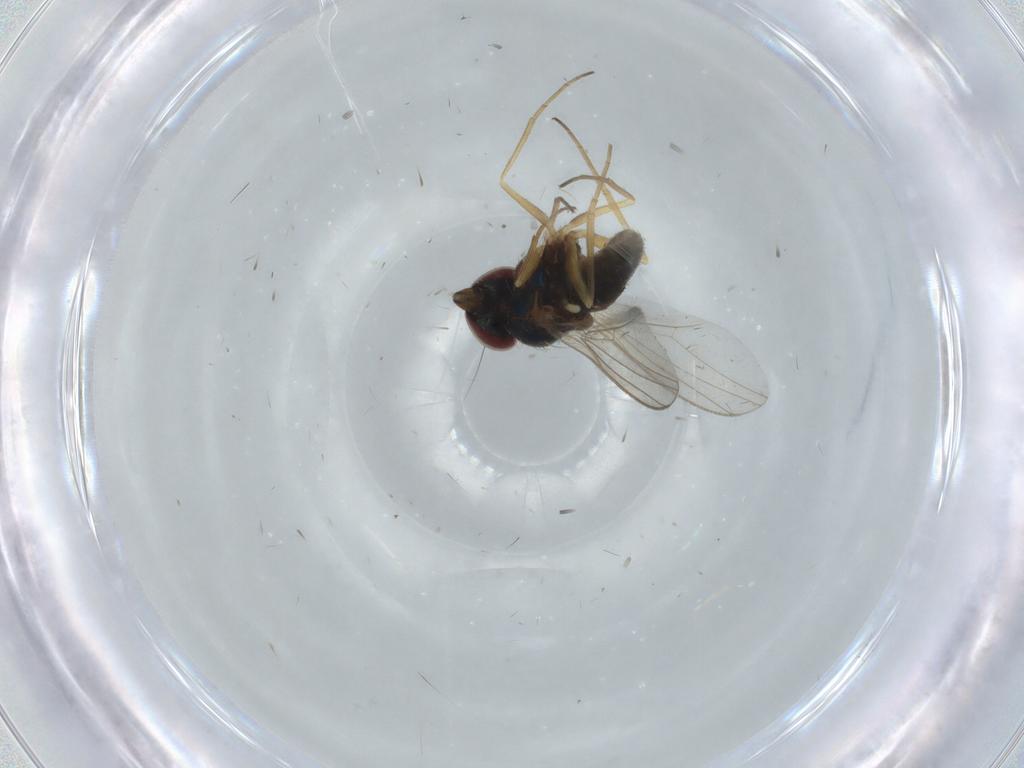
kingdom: Animalia
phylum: Arthropoda
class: Insecta
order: Diptera
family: Dolichopodidae
